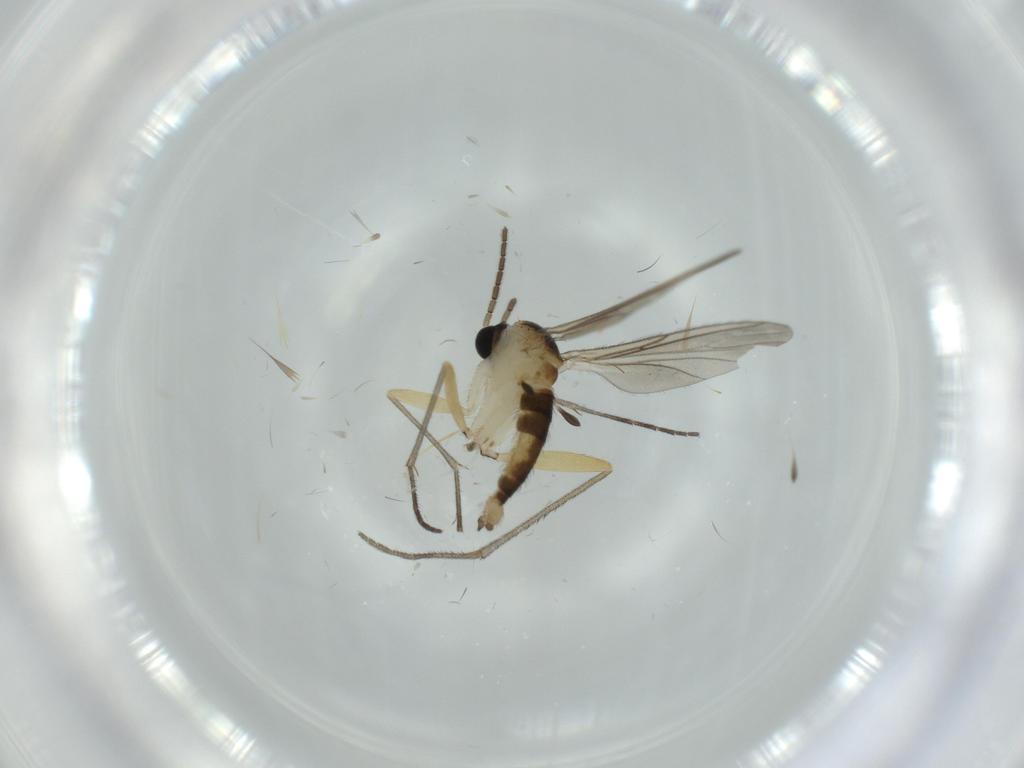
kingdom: Animalia
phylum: Arthropoda
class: Insecta
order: Diptera
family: Sciaridae
